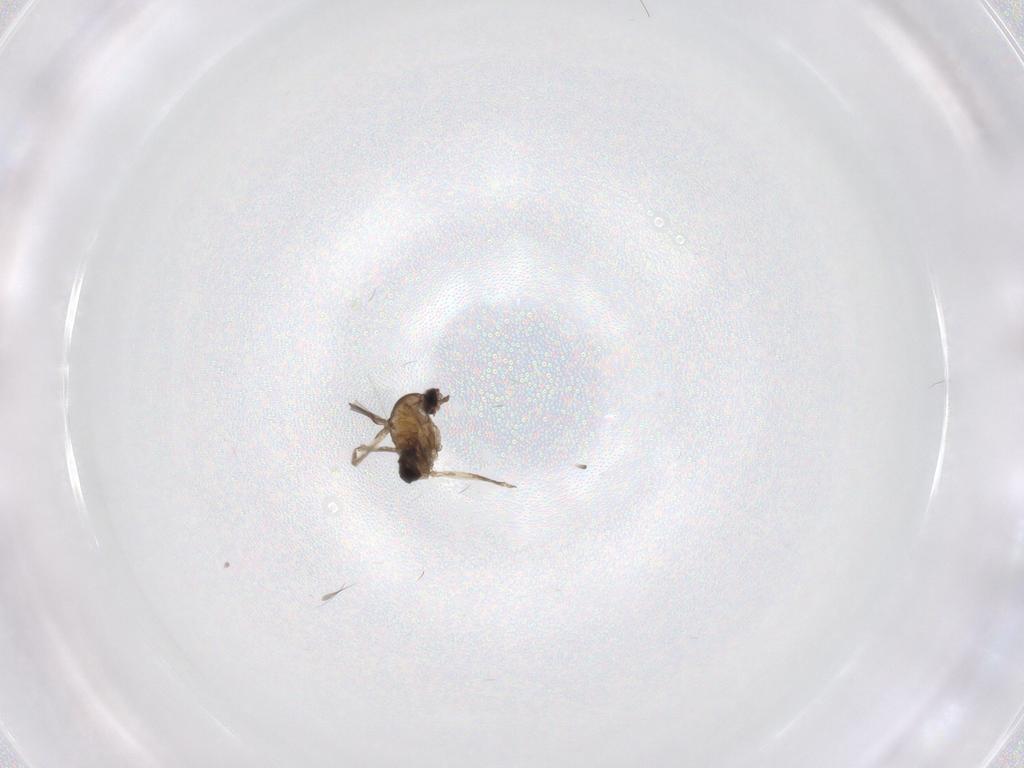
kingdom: Animalia
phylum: Arthropoda
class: Insecta
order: Diptera
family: Cecidomyiidae
